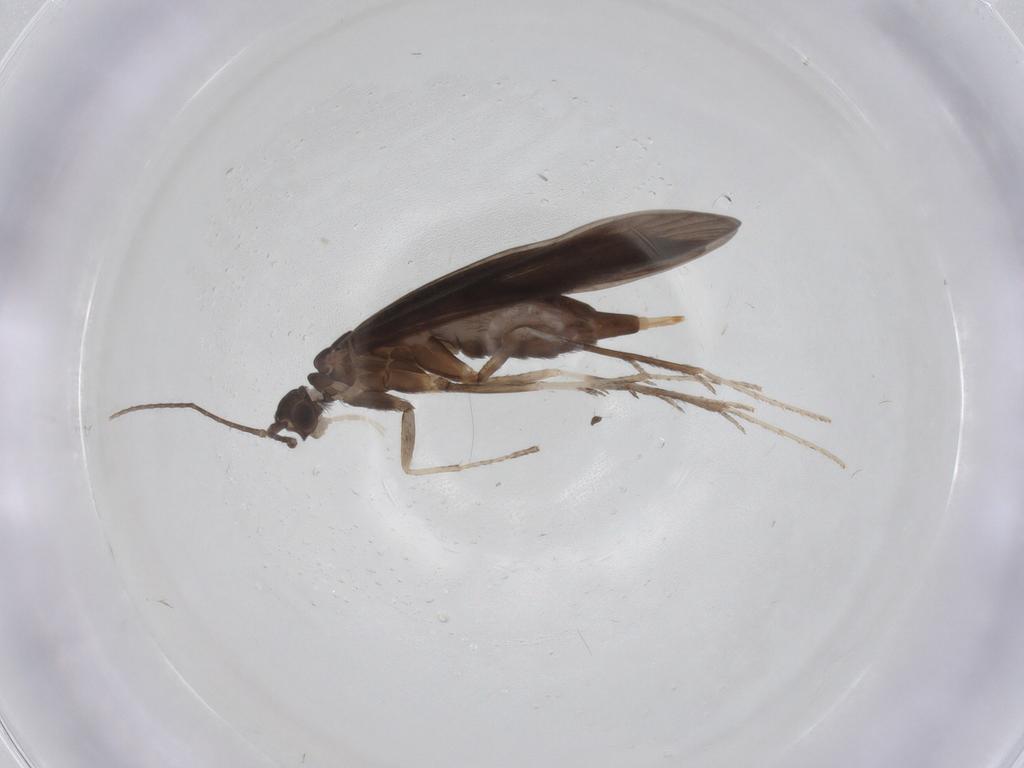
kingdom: Animalia
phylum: Arthropoda
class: Insecta
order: Trichoptera
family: Xiphocentronidae
